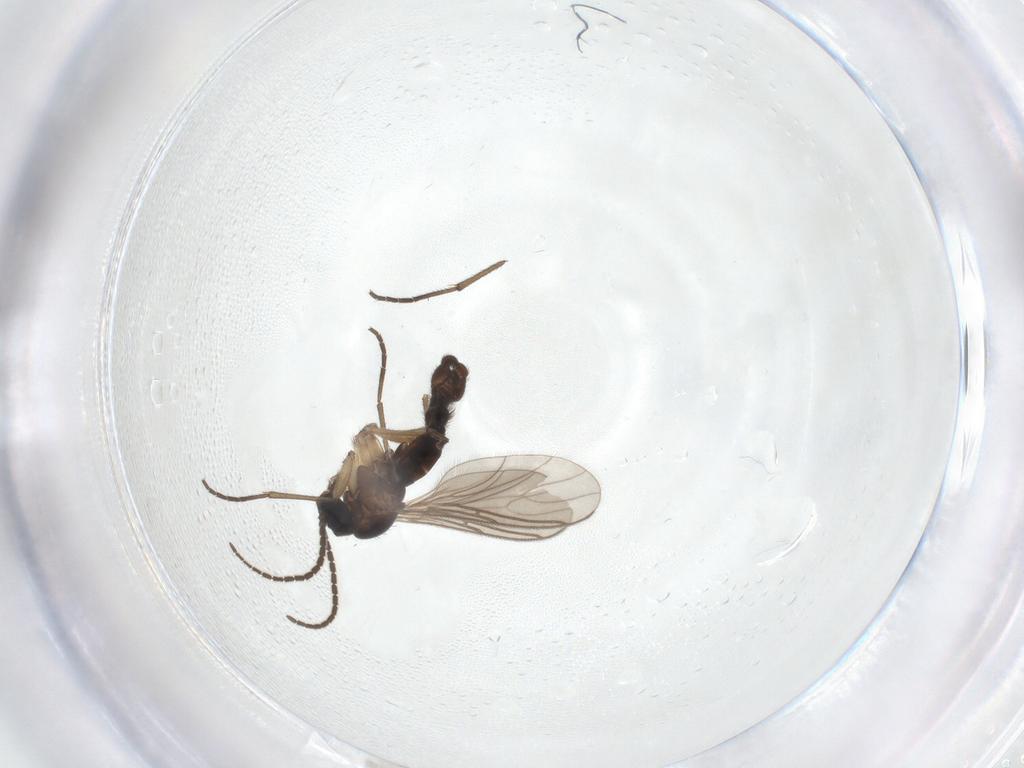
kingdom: Animalia
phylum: Arthropoda
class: Insecta
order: Diptera
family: Sciaridae
